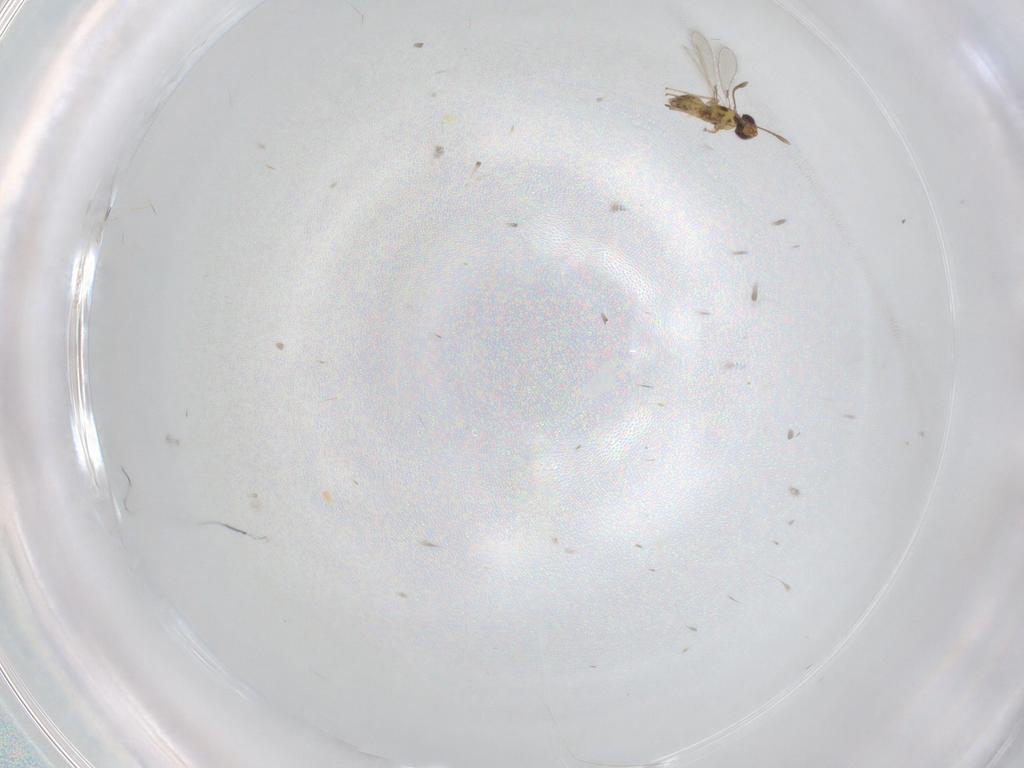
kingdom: Animalia
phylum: Arthropoda
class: Insecta
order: Hymenoptera
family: Mymaridae
